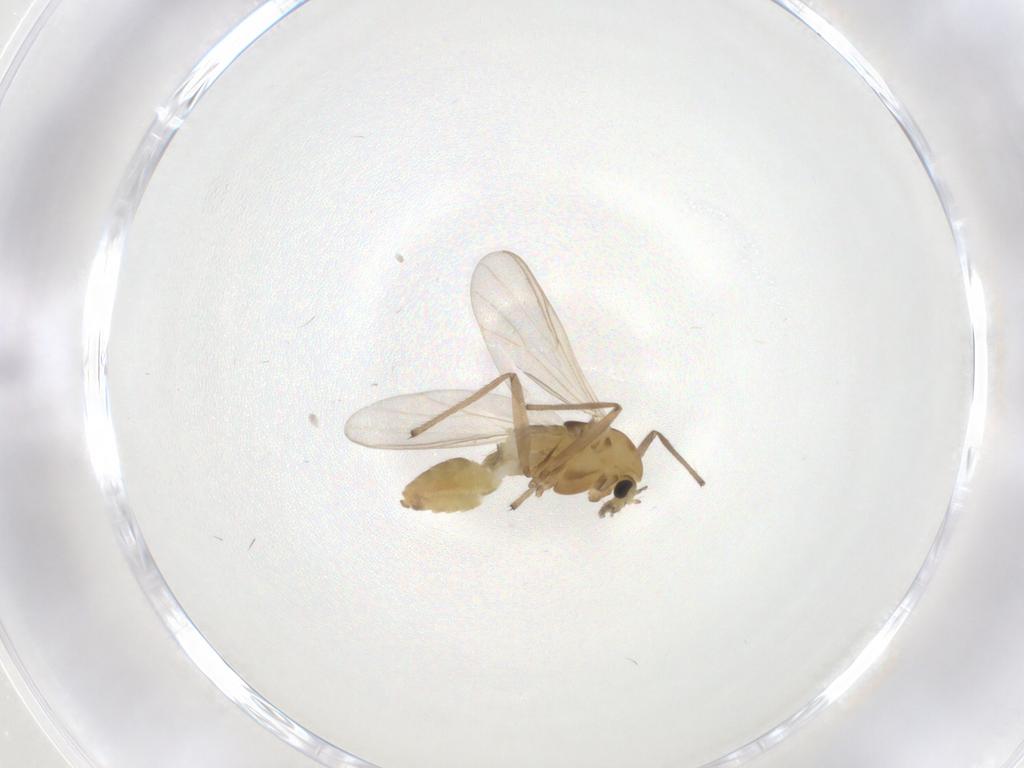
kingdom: Animalia
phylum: Arthropoda
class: Insecta
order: Diptera
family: Chironomidae
